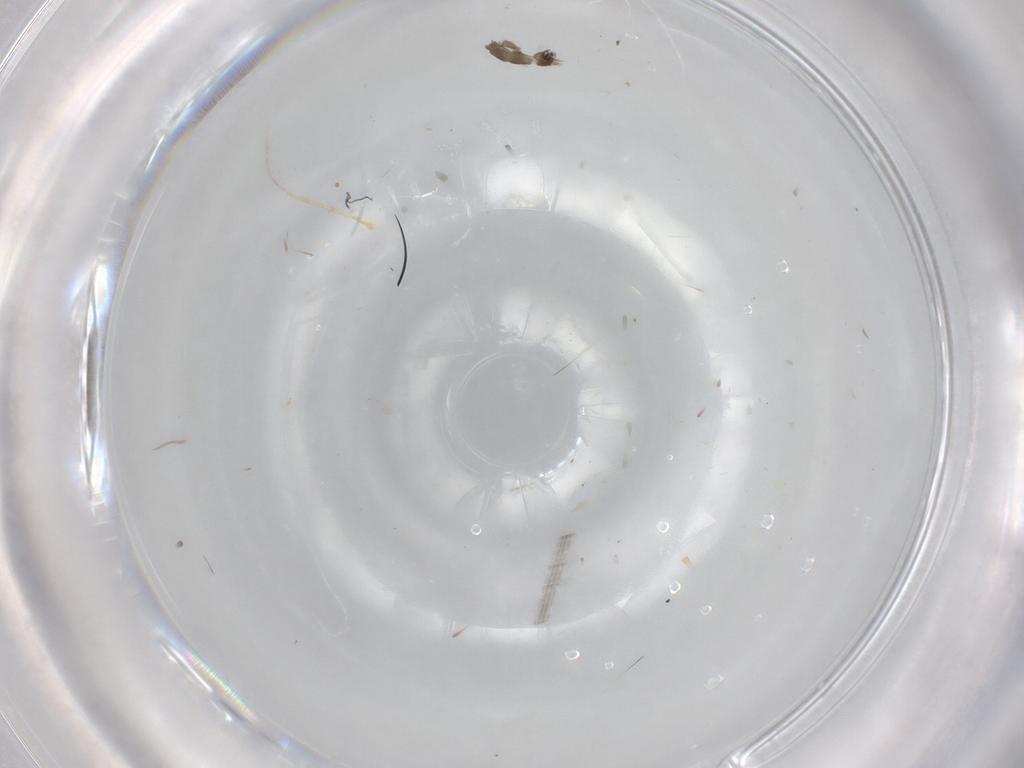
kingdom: Animalia
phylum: Arthropoda
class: Insecta
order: Diptera
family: Phoridae
